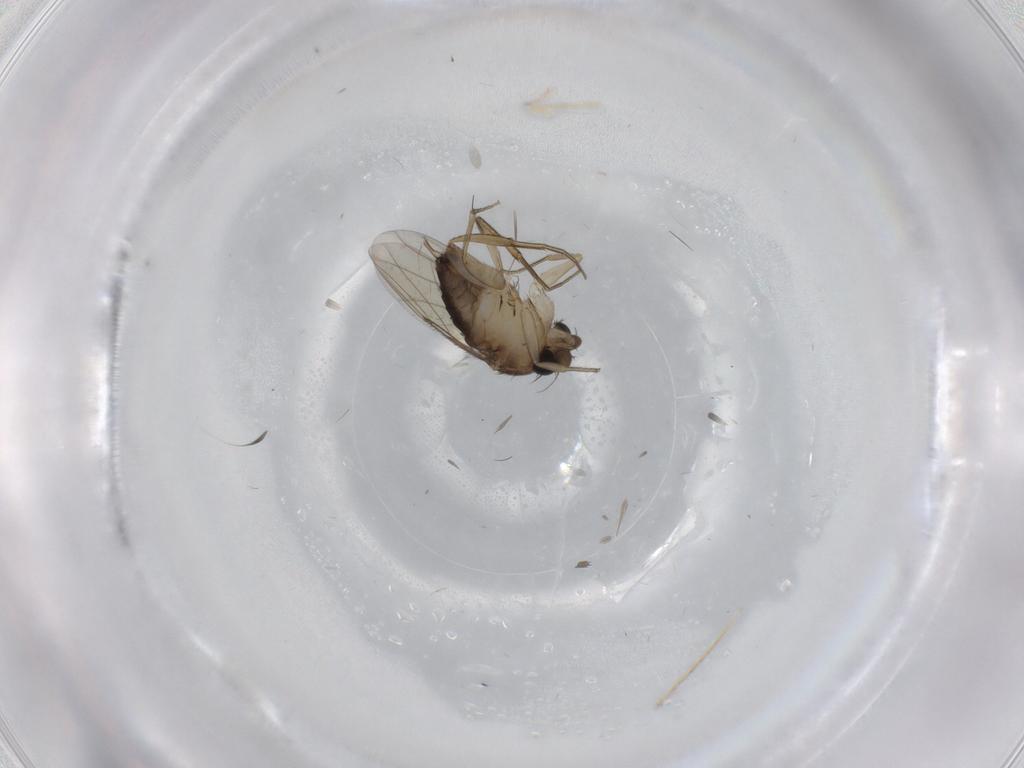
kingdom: Animalia
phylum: Arthropoda
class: Insecta
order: Diptera
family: Phoridae
